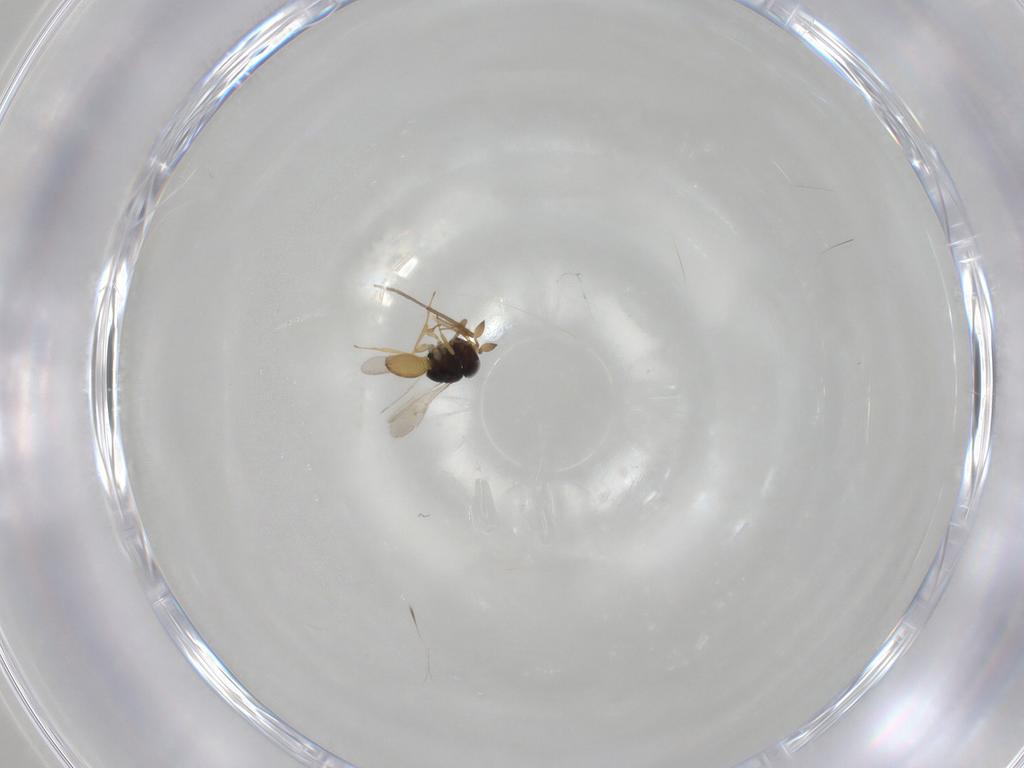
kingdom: Animalia
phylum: Arthropoda
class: Insecta
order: Hymenoptera
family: Scelionidae
